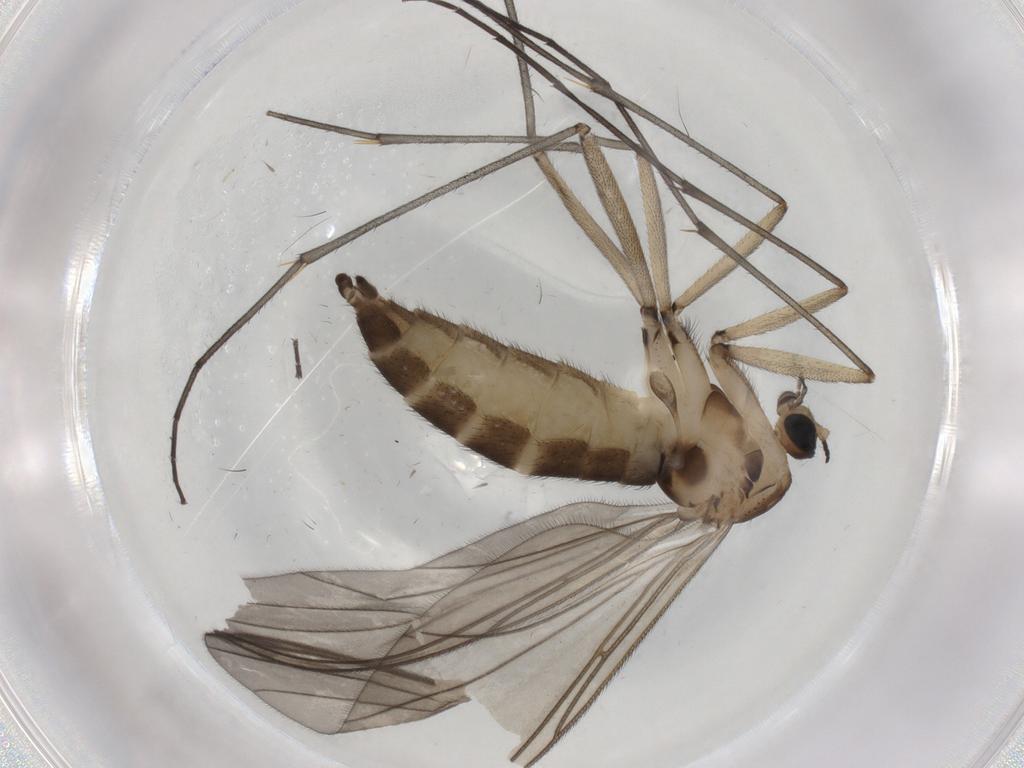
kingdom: Animalia
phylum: Arthropoda
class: Insecta
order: Diptera
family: Sciaridae
